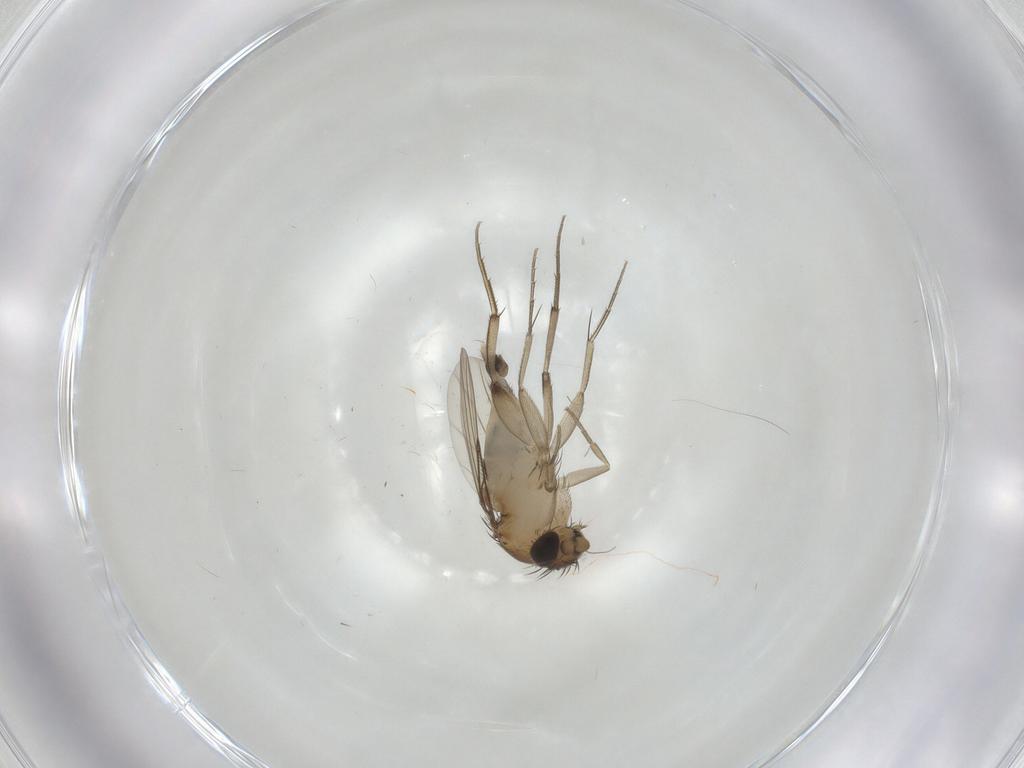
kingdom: Animalia
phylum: Arthropoda
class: Insecta
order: Diptera
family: Phoridae
